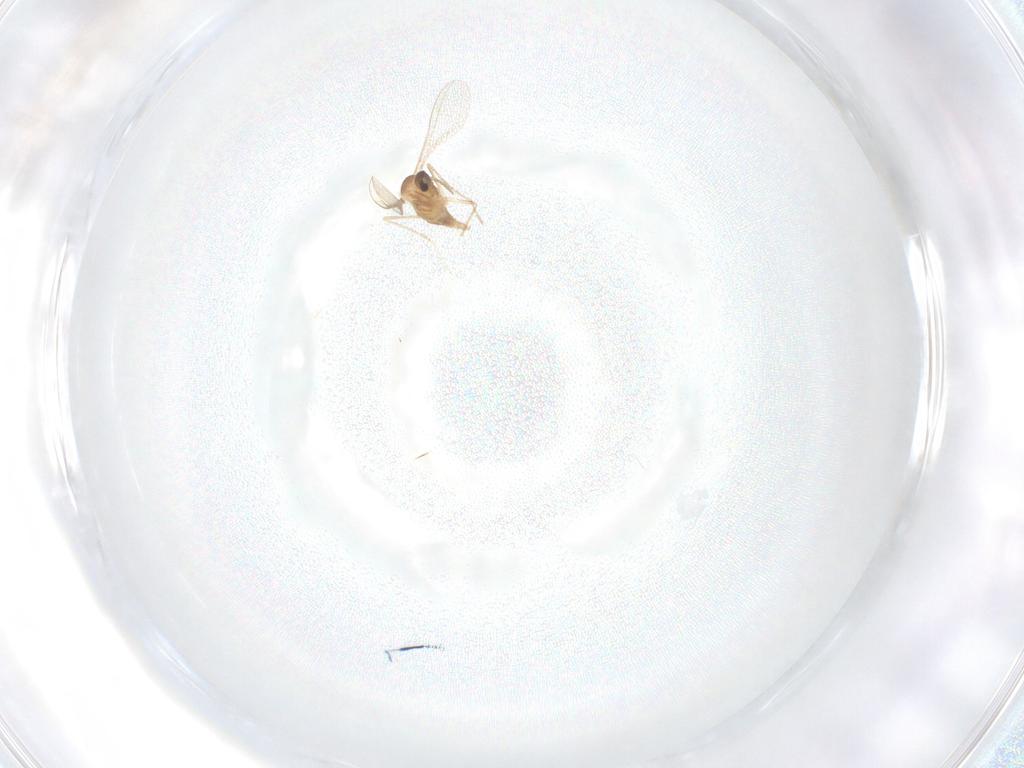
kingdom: Animalia
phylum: Arthropoda
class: Insecta
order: Diptera
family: Cecidomyiidae
